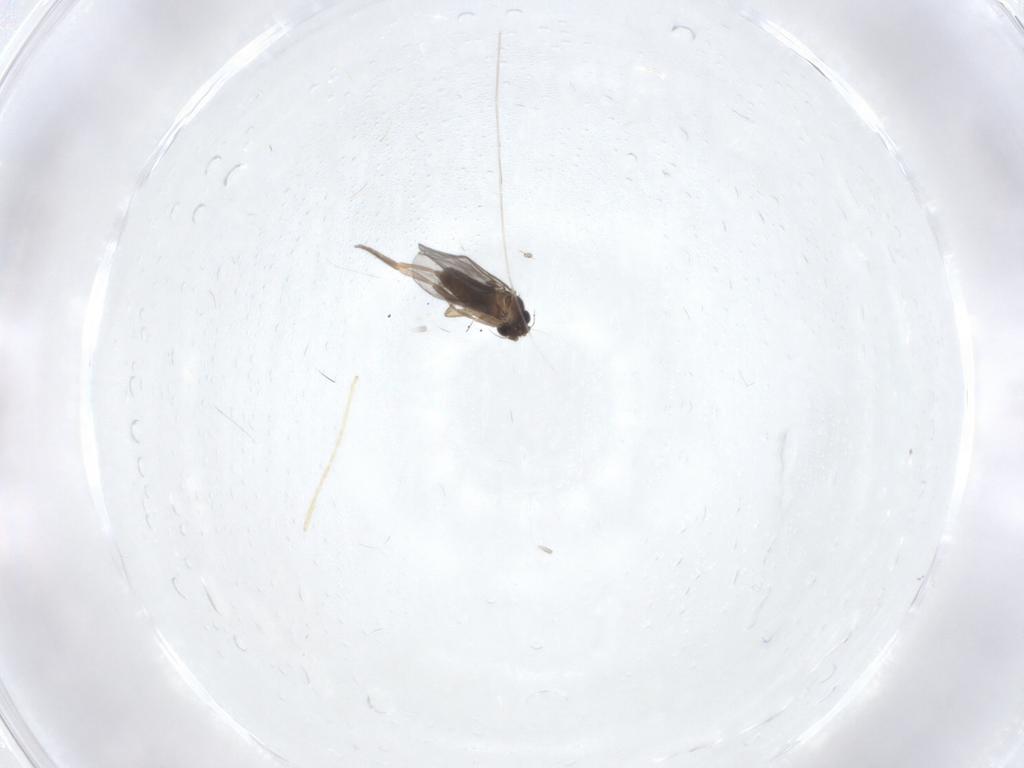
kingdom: Animalia
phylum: Arthropoda
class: Insecta
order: Diptera
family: Sciaridae
